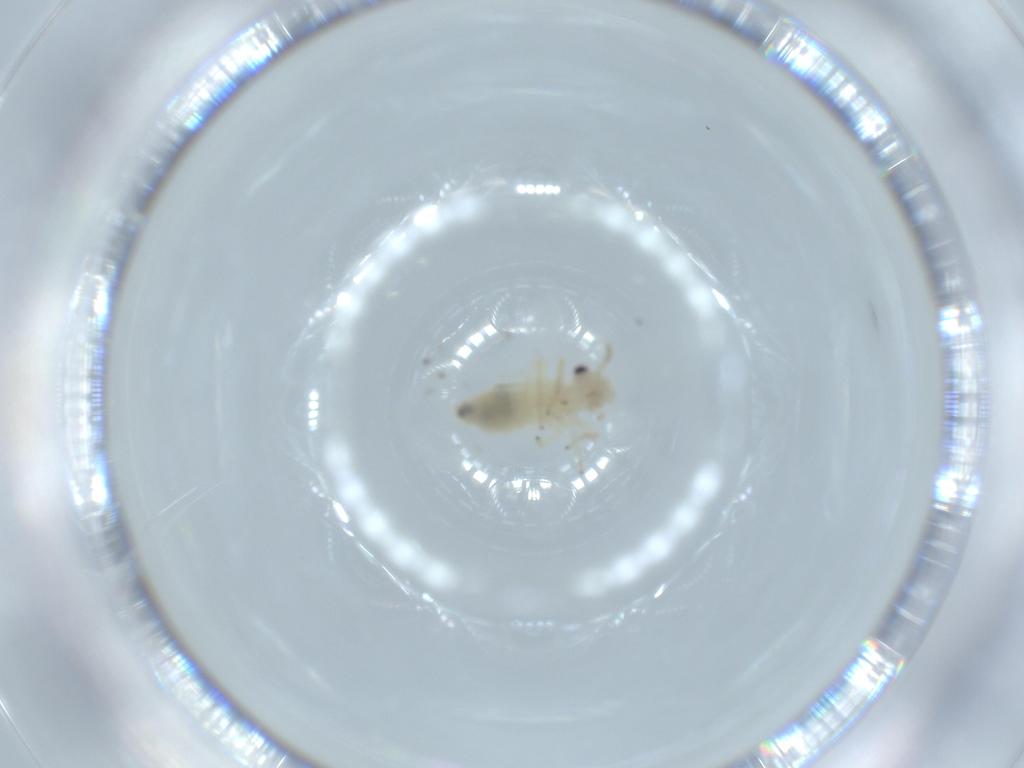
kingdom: Animalia
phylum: Arthropoda
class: Insecta
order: Psocodea
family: Caeciliusidae
